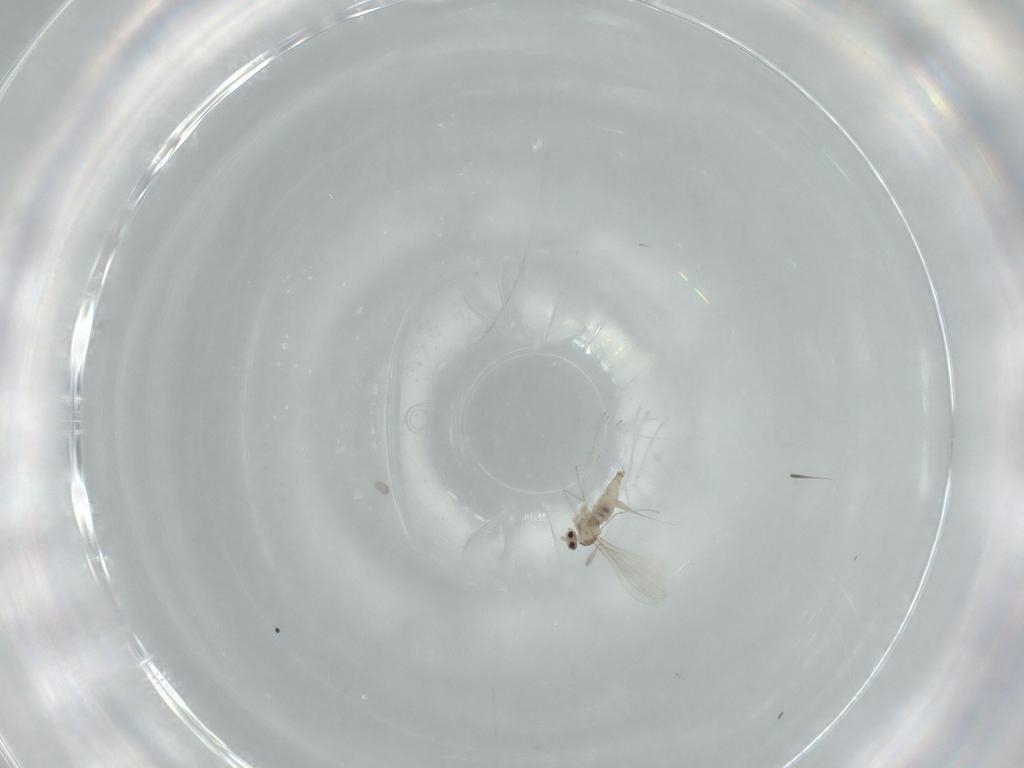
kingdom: Animalia
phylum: Arthropoda
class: Insecta
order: Diptera
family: Cecidomyiidae
